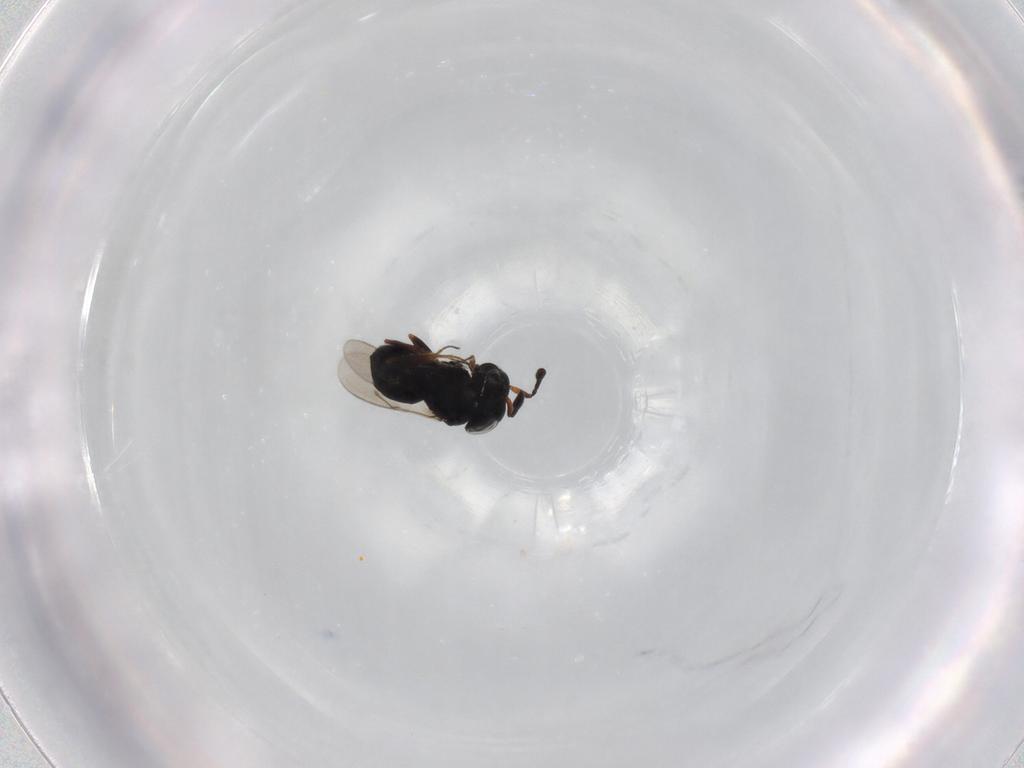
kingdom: Animalia
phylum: Arthropoda
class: Insecta
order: Hymenoptera
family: Scelionidae
